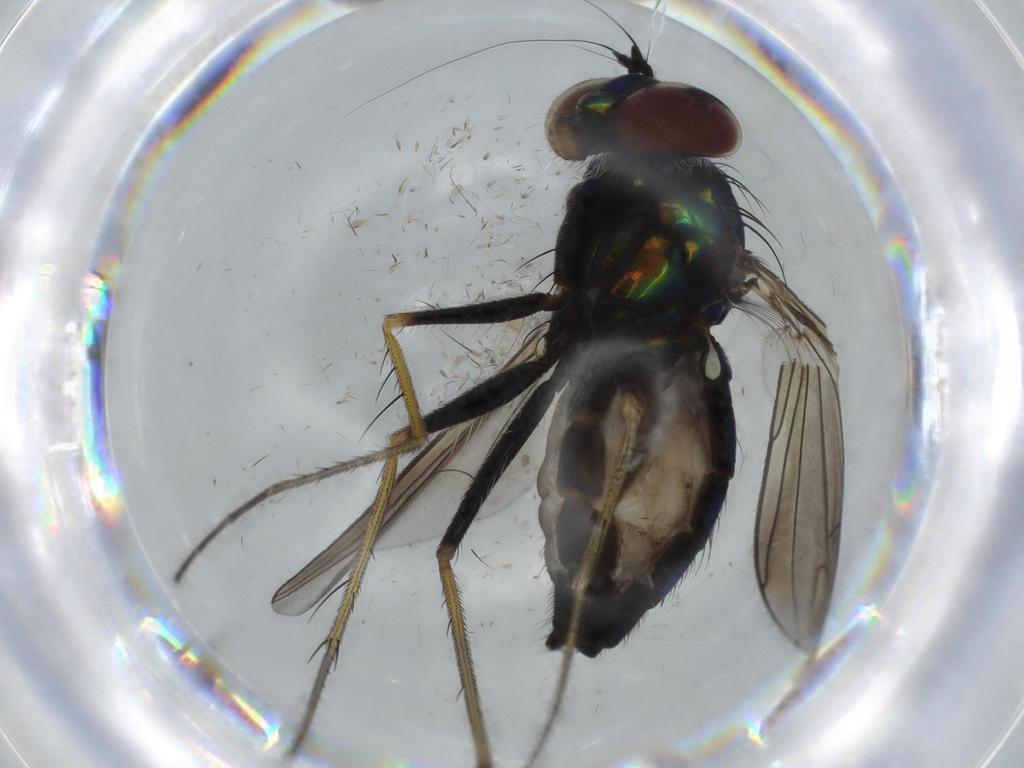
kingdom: Animalia
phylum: Arthropoda
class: Insecta
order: Diptera
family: Dolichopodidae
